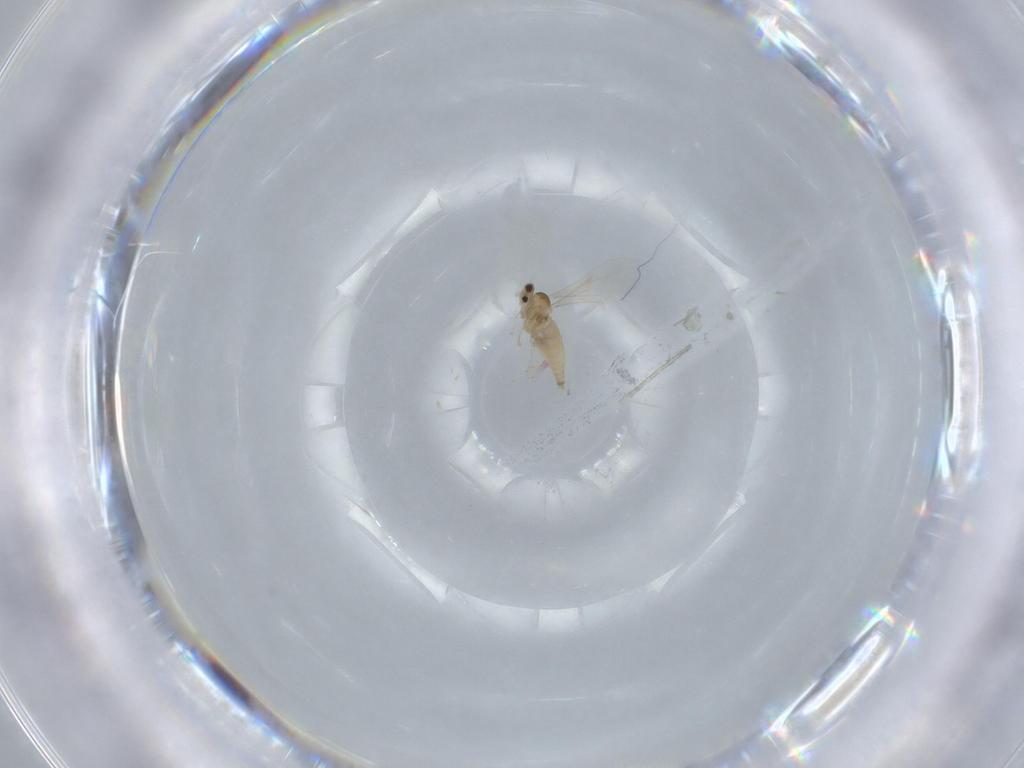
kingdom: Animalia
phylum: Arthropoda
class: Insecta
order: Diptera
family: Cecidomyiidae
